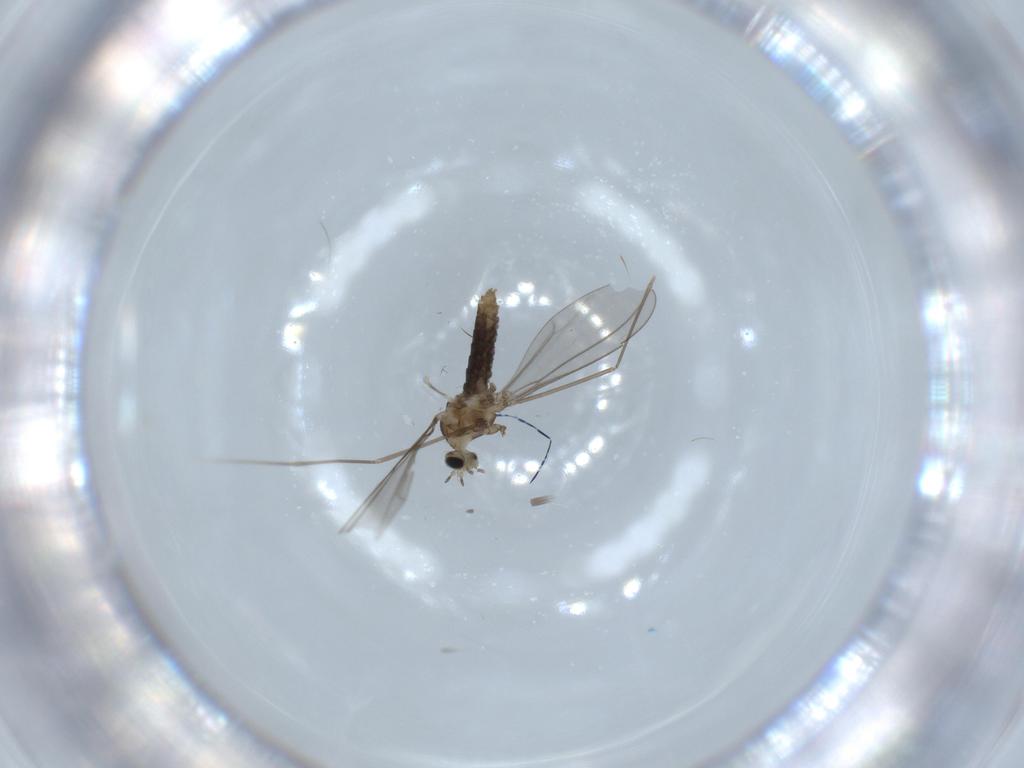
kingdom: Animalia
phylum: Arthropoda
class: Insecta
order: Diptera
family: Cecidomyiidae
